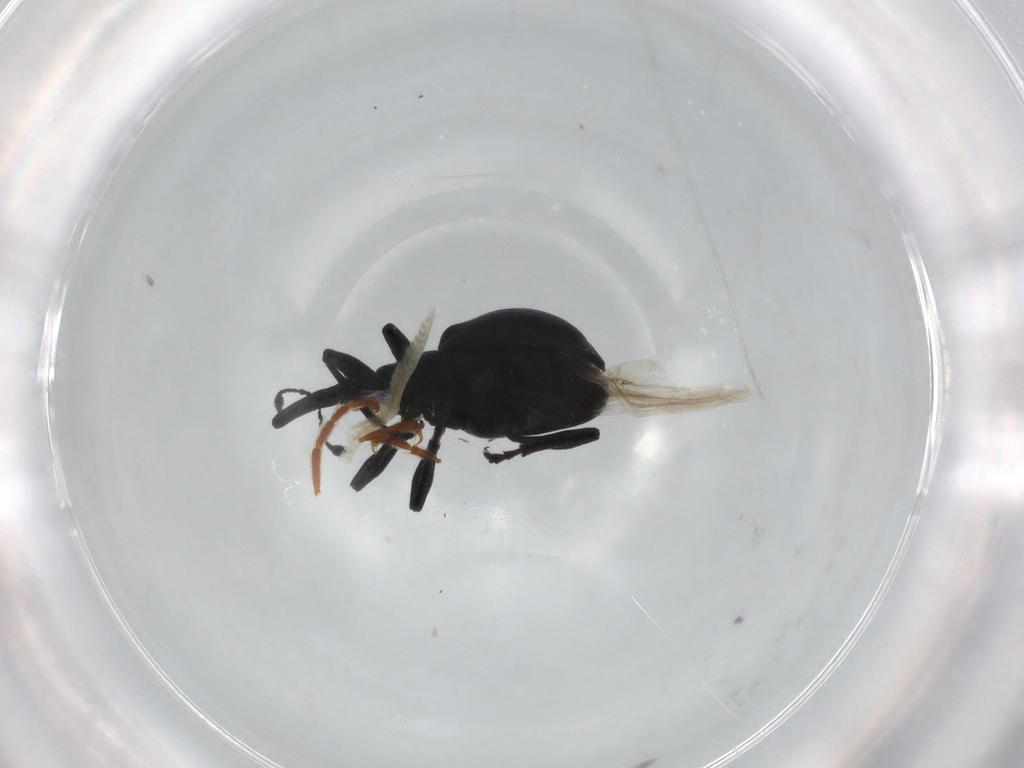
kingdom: Animalia
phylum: Arthropoda
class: Insecta
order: Coleoptera
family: Apionidae
